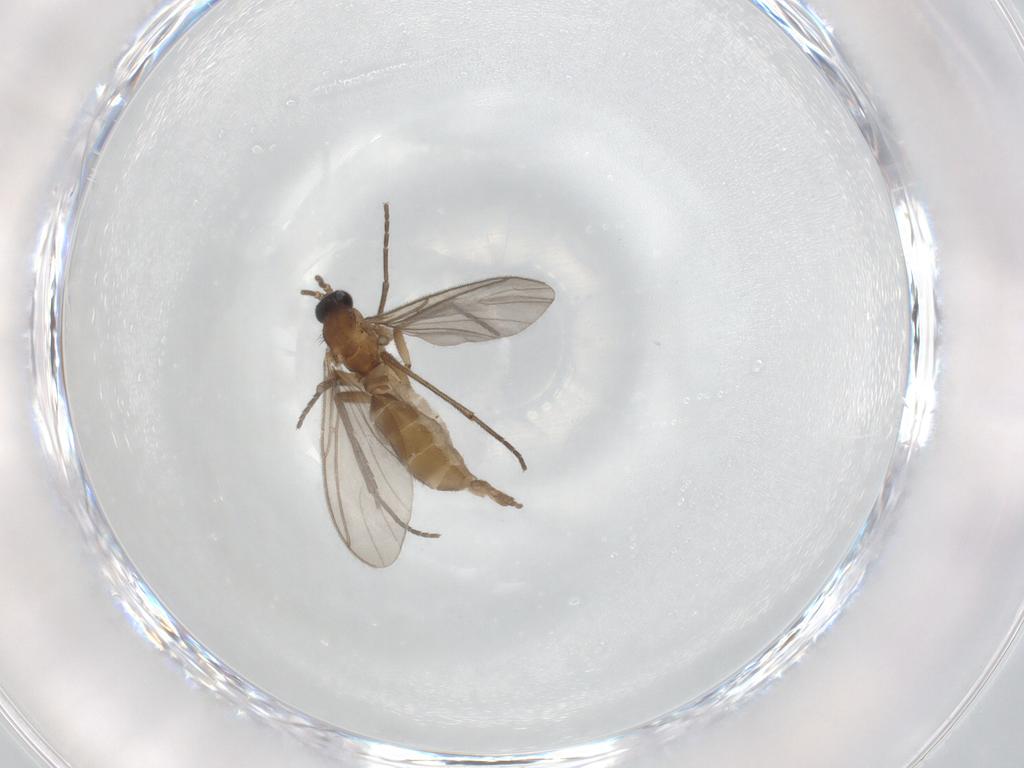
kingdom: Animalia
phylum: Arthropoda
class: Insecta
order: Diptera
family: Sciaridae
